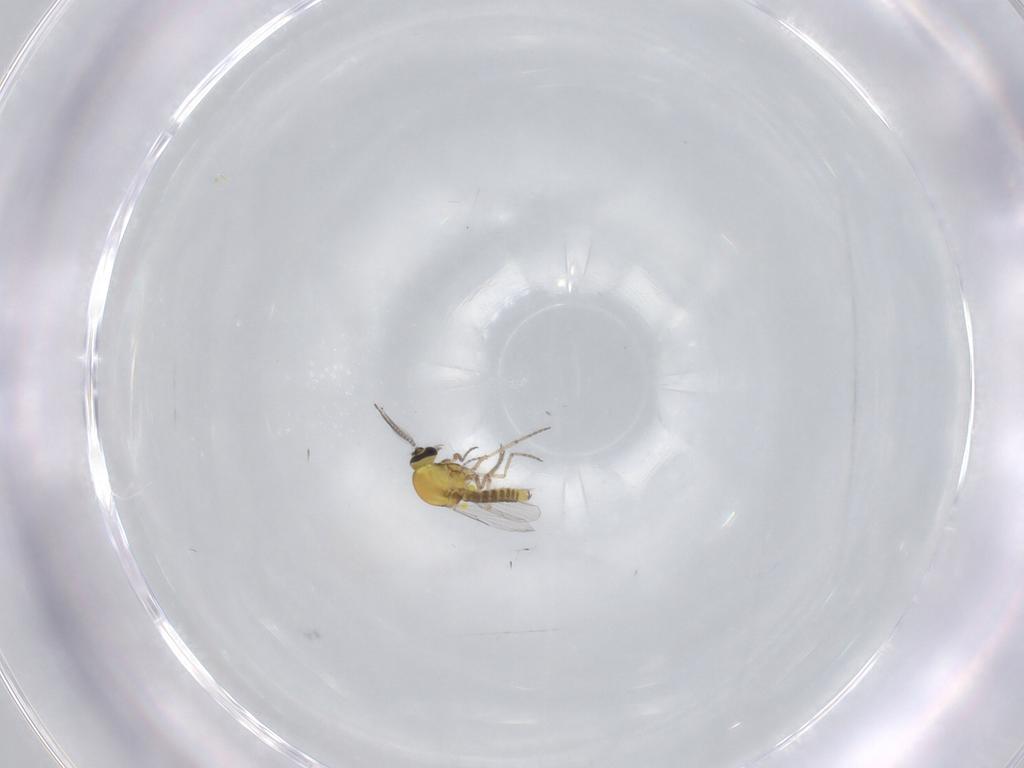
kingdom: Animalia
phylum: Arthropoda
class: Insecta
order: Diptera
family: Ceratopogonidae
